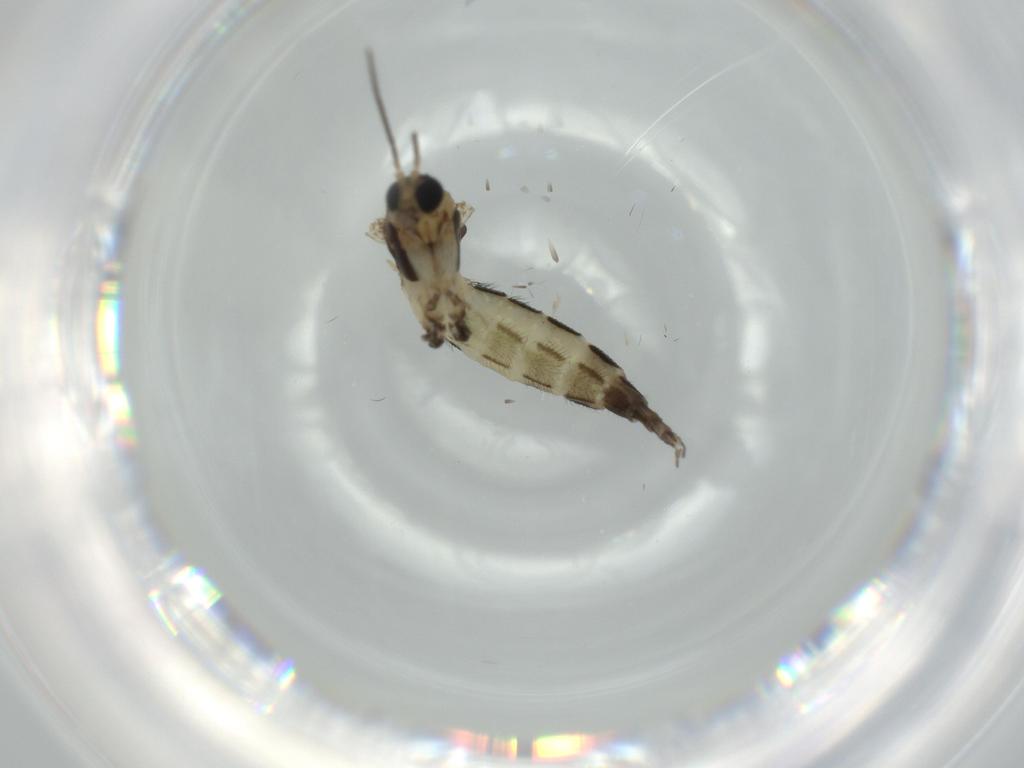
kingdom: Animalia
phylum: Arthropoda
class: Insecta
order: Diptera
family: Sciaridae
